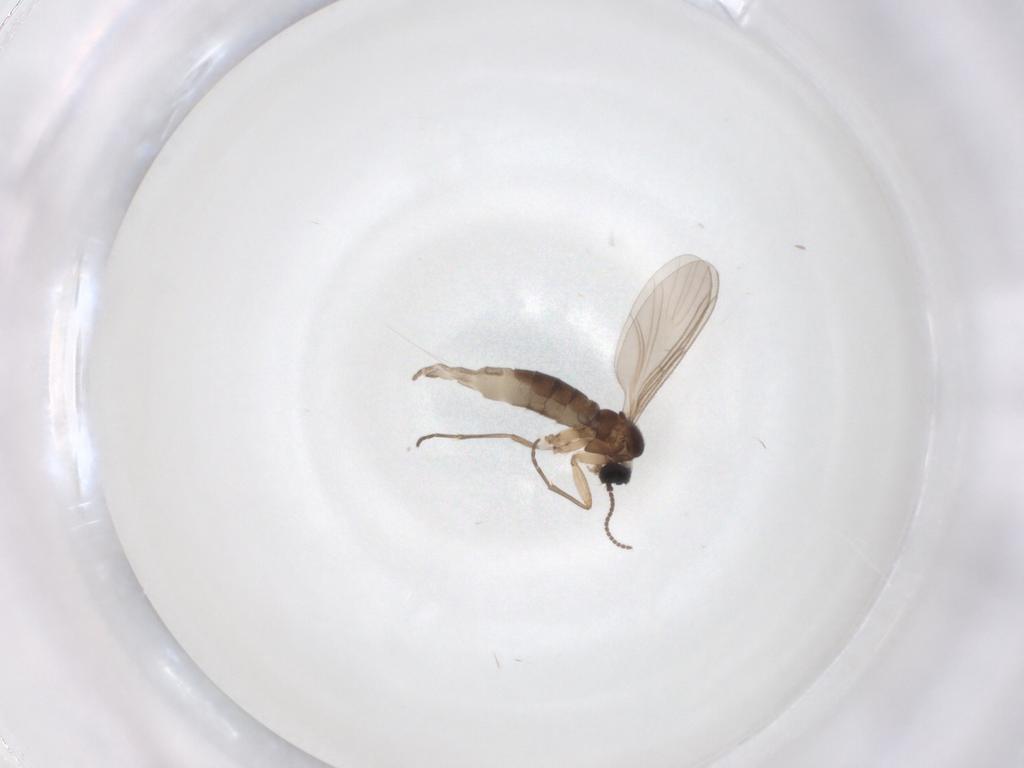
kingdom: Animalia
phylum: Arthropoda
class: Insecta
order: Diptera
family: Sciaridae
